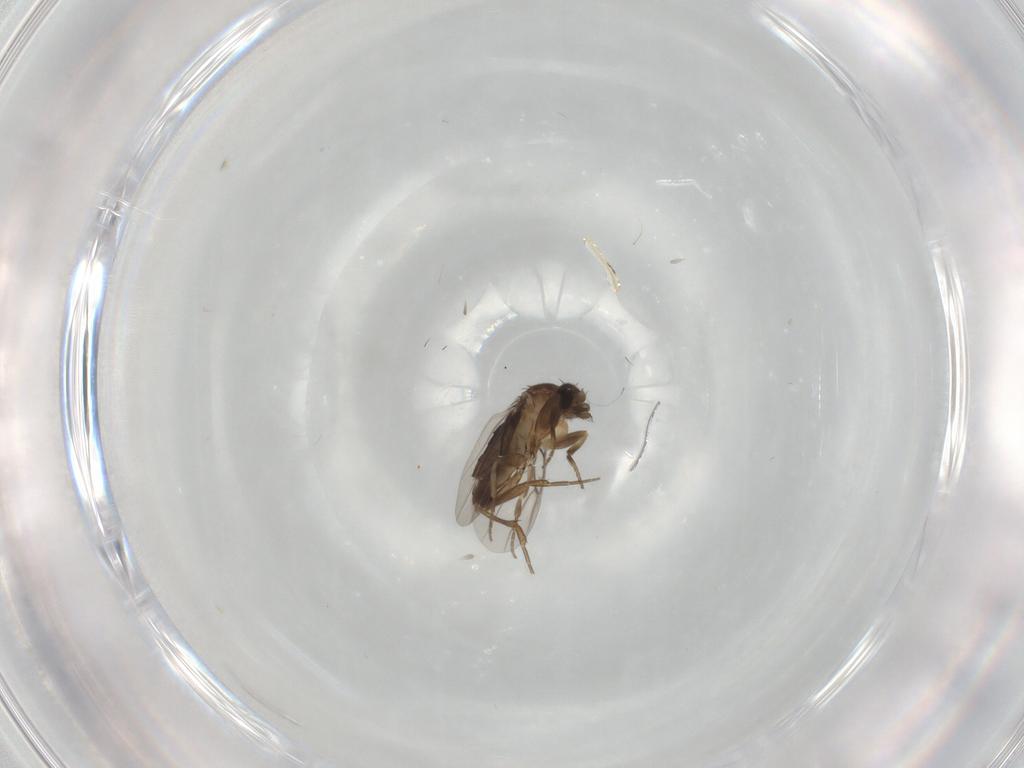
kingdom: Animalia
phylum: Arthropoda
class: Insecta
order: Diptera
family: Phoridae
